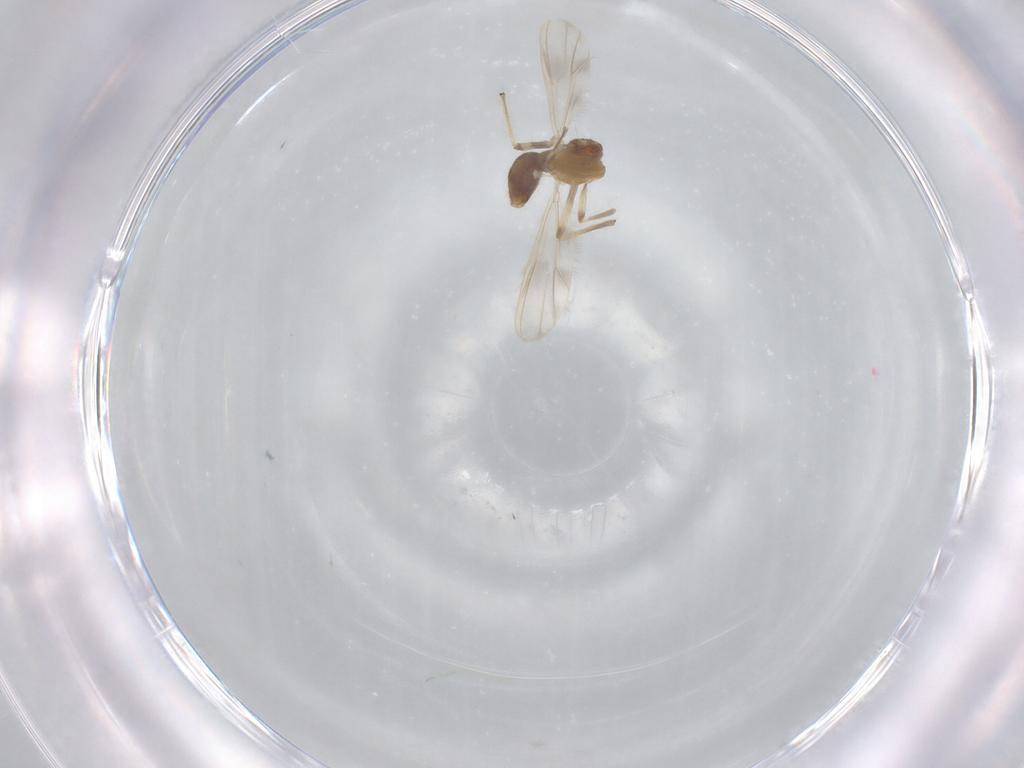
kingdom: Animalia
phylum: Arthropoda
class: Insecta
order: Diptera
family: Chironomidae
